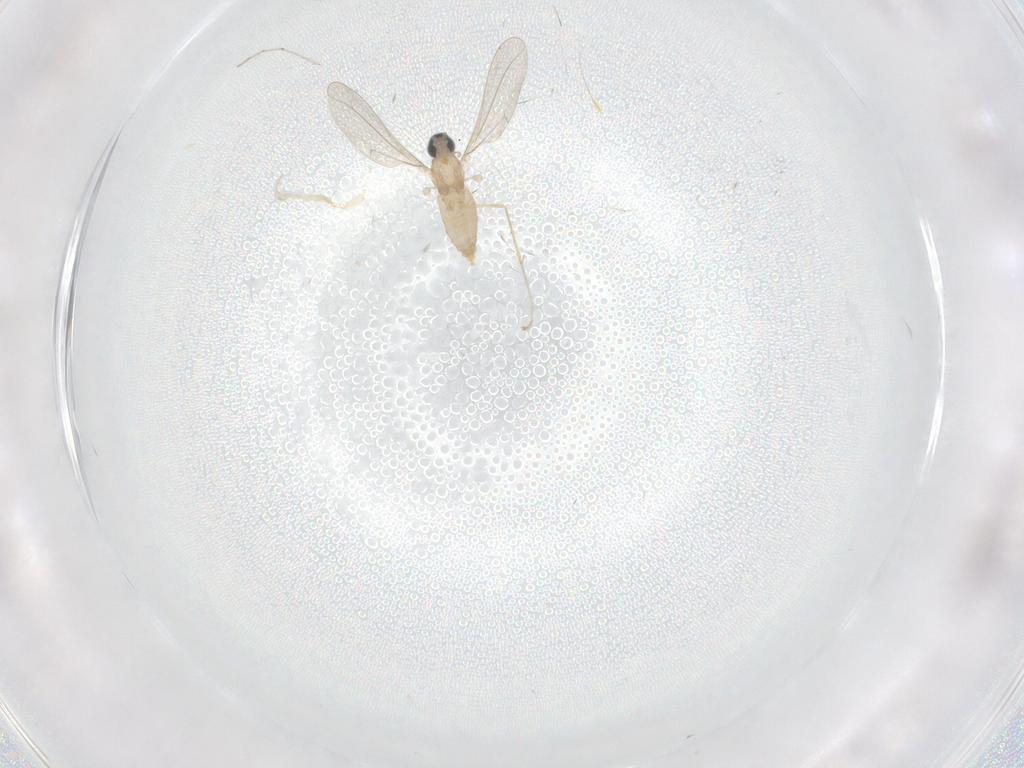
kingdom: Animalia
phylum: Arthropoda
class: Insecta
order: Diptera
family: Cecidomyiidae
